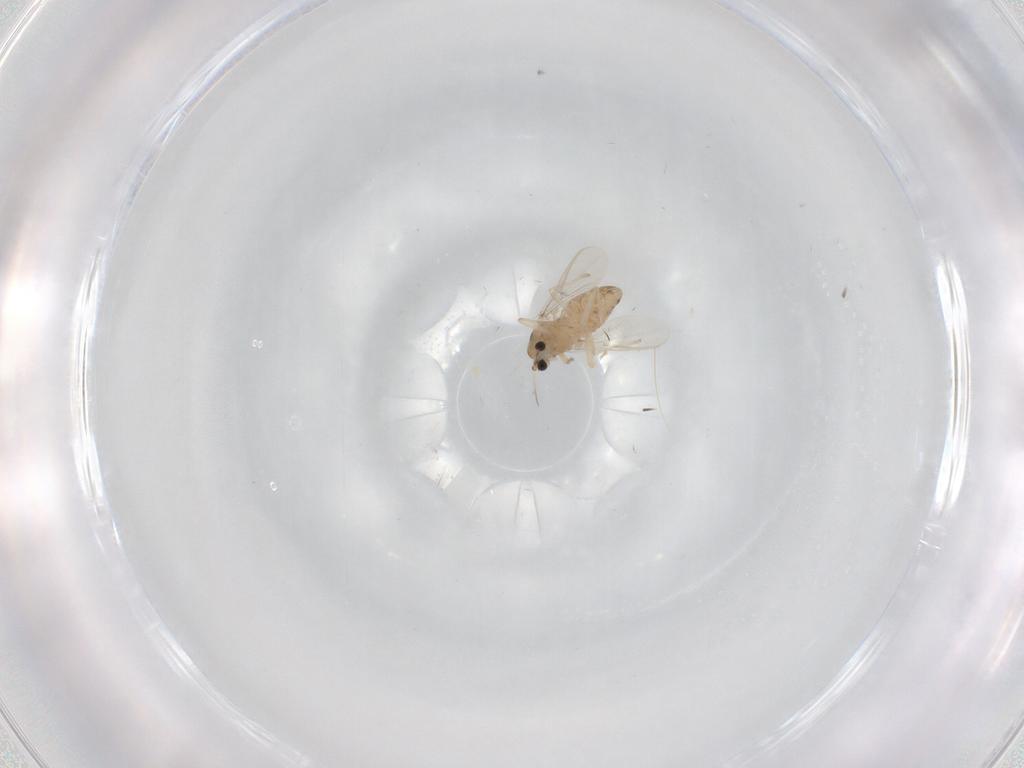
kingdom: Animalia
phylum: Arthropoda
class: Insecta
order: Diptera
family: Chironomidae
